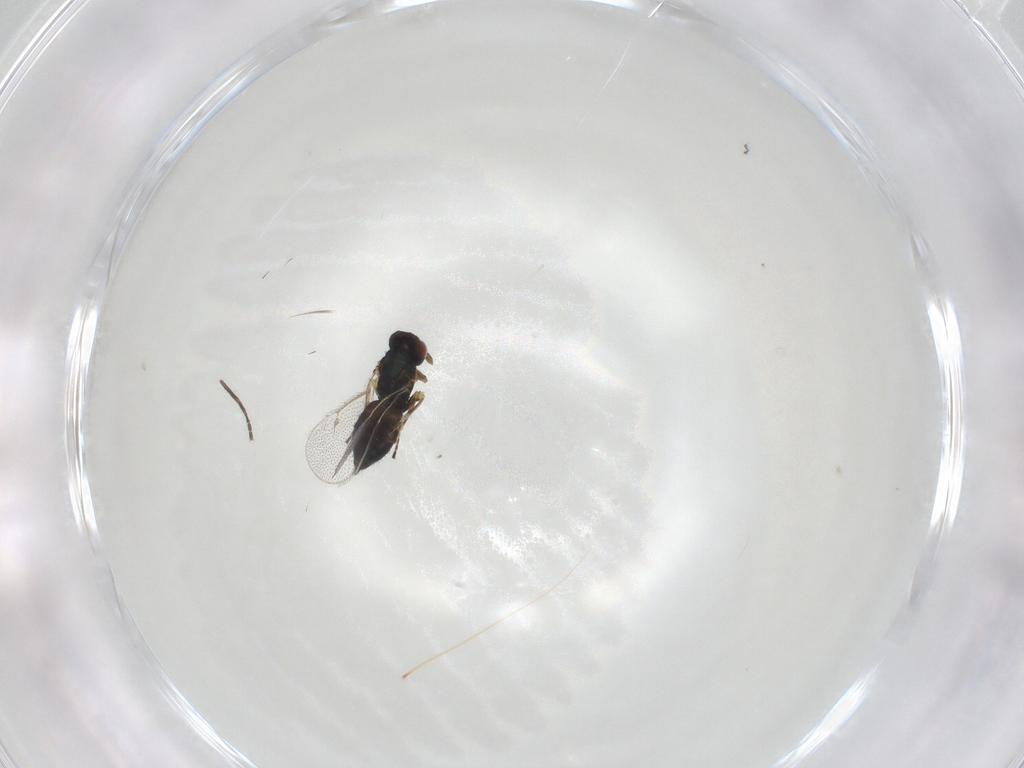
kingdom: Animalia
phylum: Arthropoda
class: Insecta
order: Hymenoptera
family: Eulophidae
